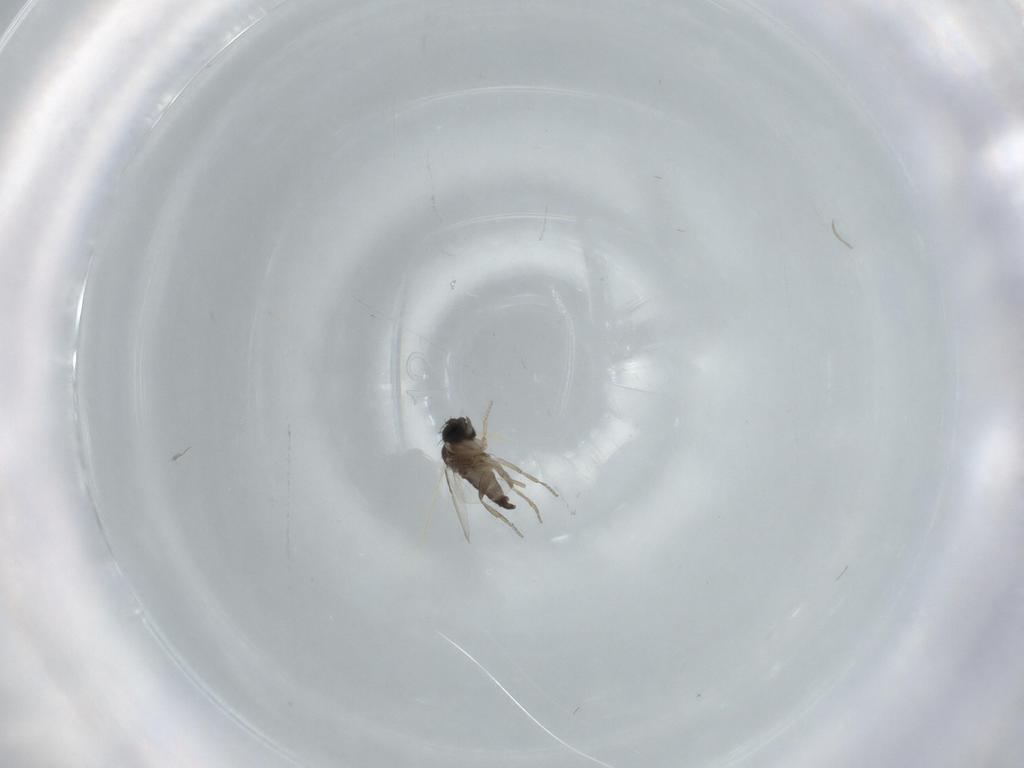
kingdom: Animalia
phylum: Arthropoda
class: Insecta
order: Diptera
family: Phoridae
